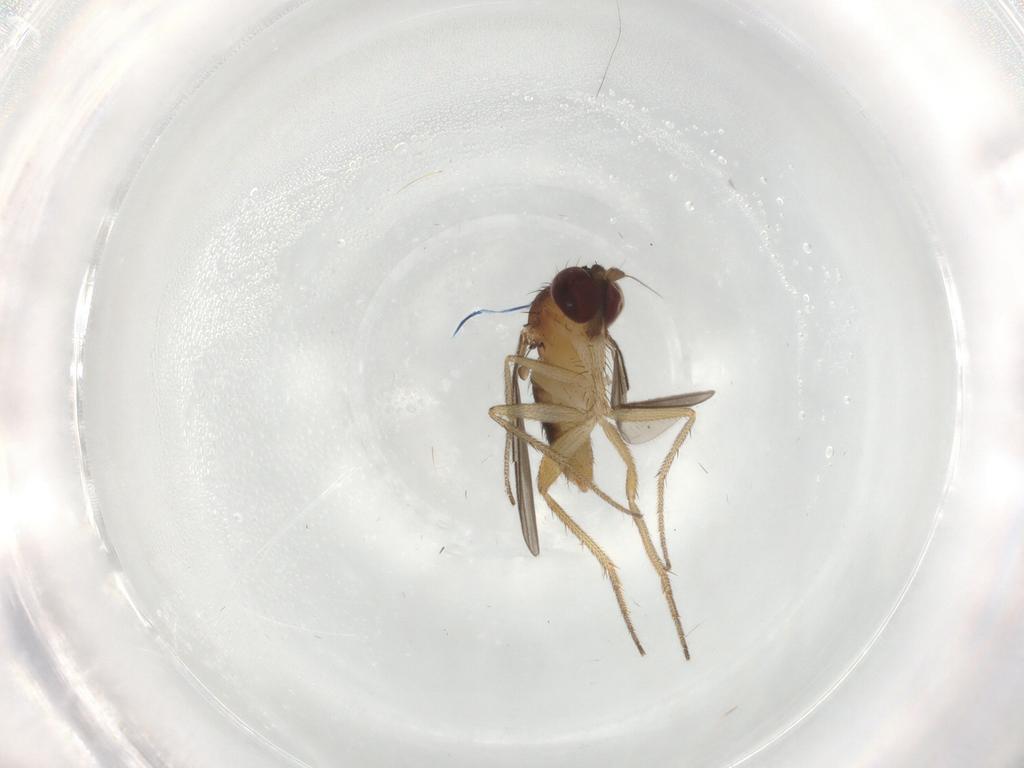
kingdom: Animalia
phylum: Arthropoda
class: Insecta
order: Diptera
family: Dolichopodidae
